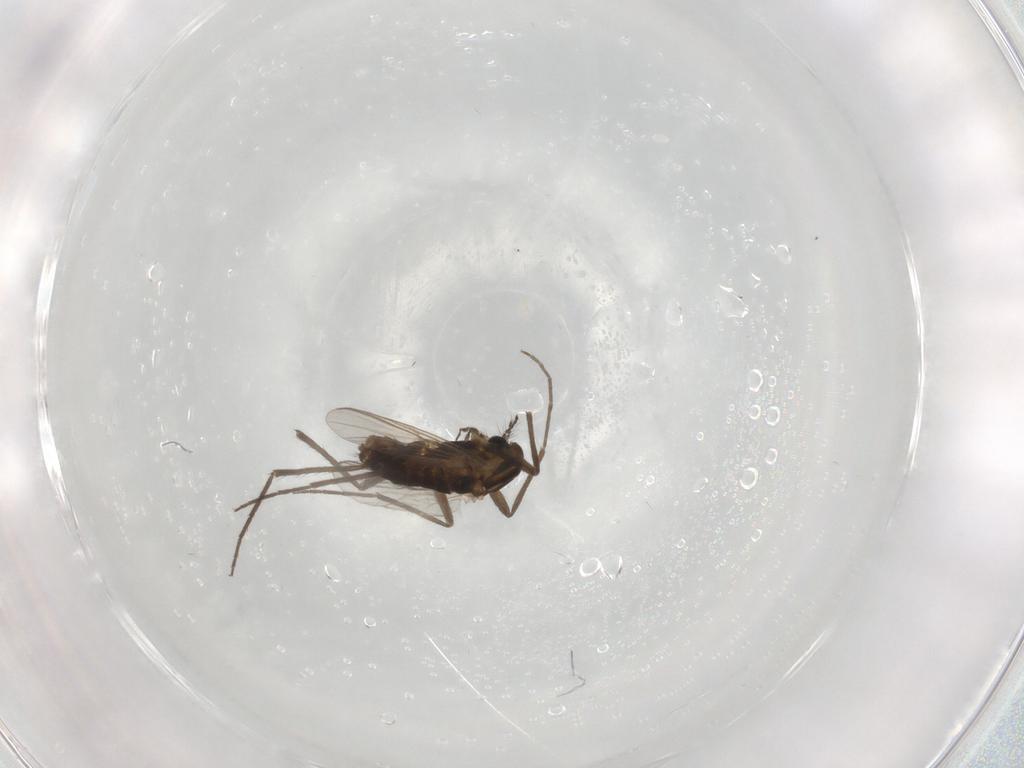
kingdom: Animalia
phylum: Arthropoda
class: Insecta
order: Diptera
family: Chironomidae
